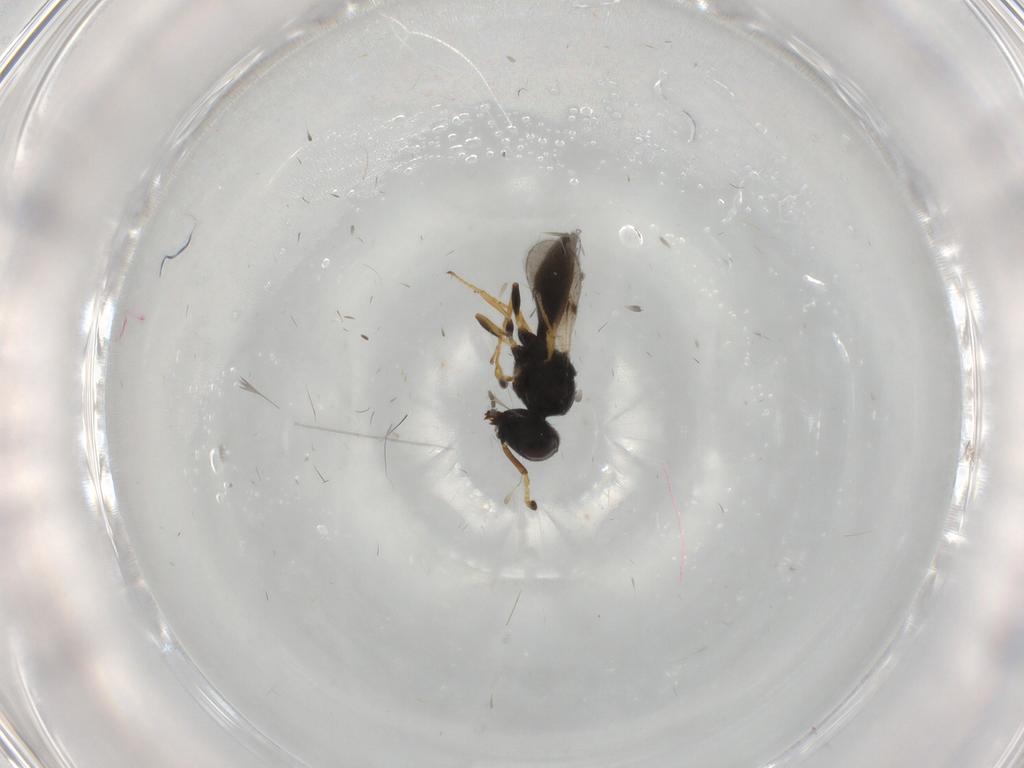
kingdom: Animalia
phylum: Arthropoda
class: Insecta
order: Hymenoptera
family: Scelionidae
